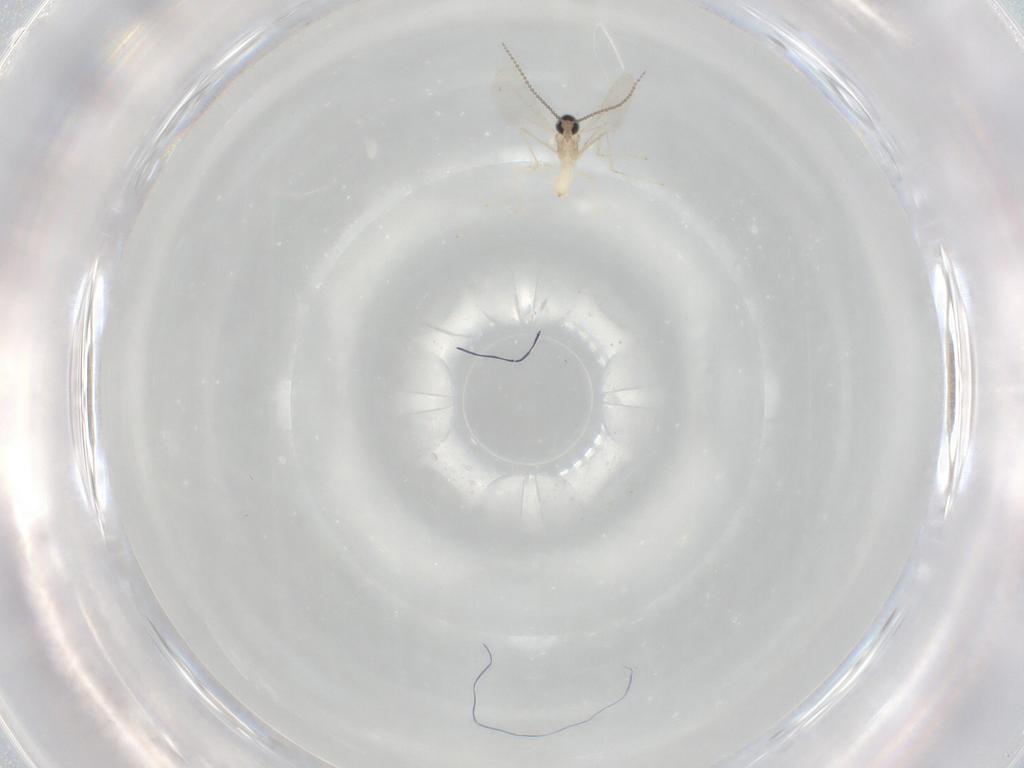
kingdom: Animalia
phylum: Arthropoda
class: Insecta
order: Diptera
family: Cecidomyiidae
